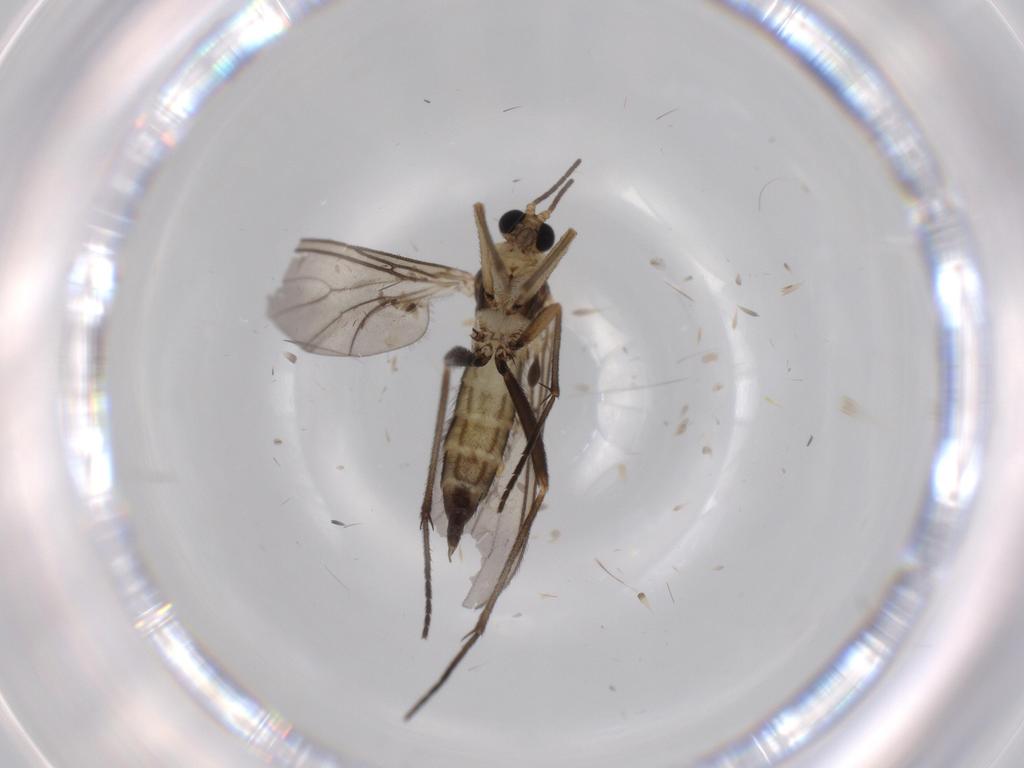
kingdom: Animalia
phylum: Arthropoda
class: Insecta
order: Diptera
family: Sciaridae
